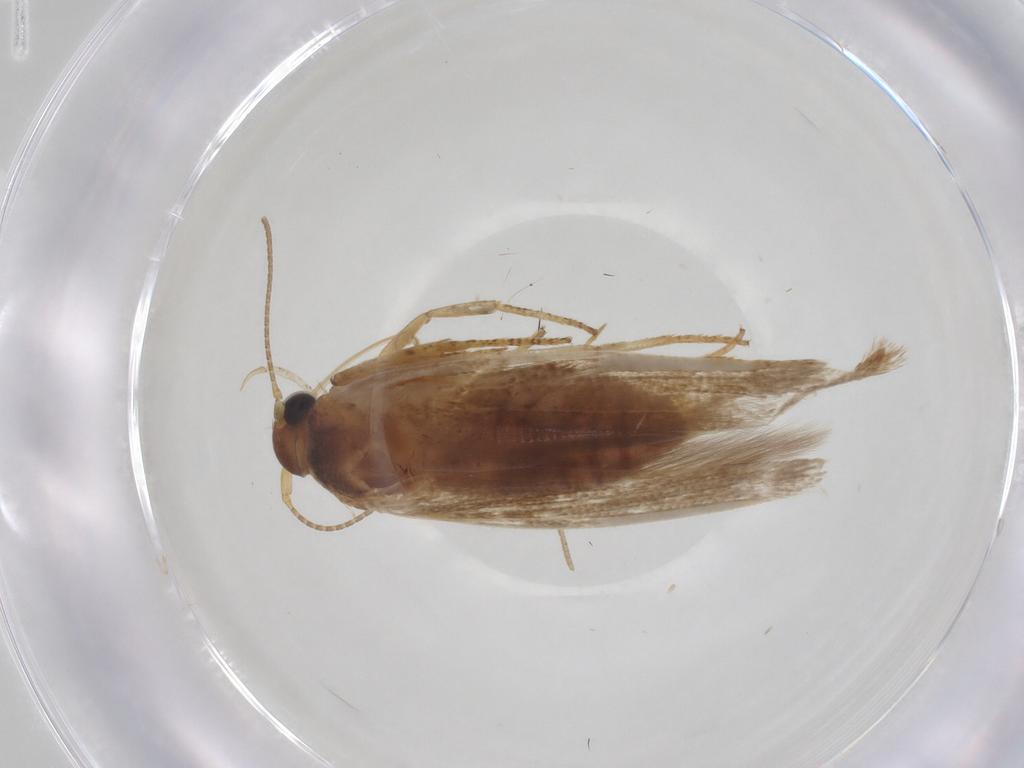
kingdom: Animalia
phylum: Arthropoda
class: Insecta
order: Lepidoptera
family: Blastobasidae
